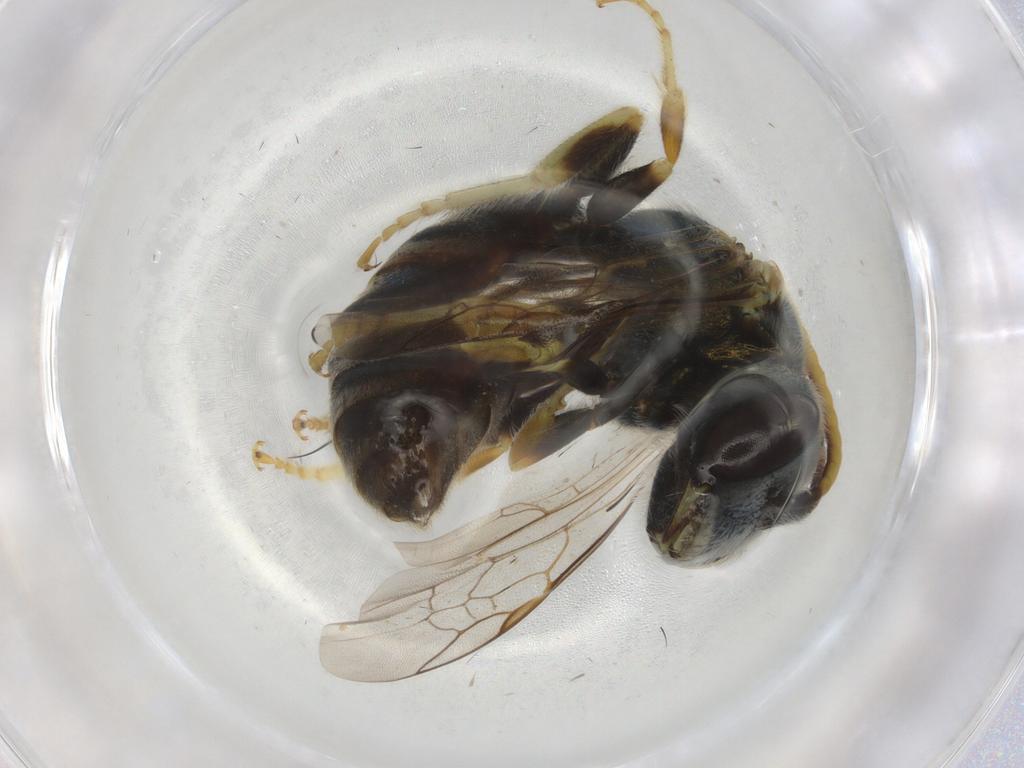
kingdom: Animalia
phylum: Arthropoda
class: Insecta
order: Hymenoptera
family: Halictidae
